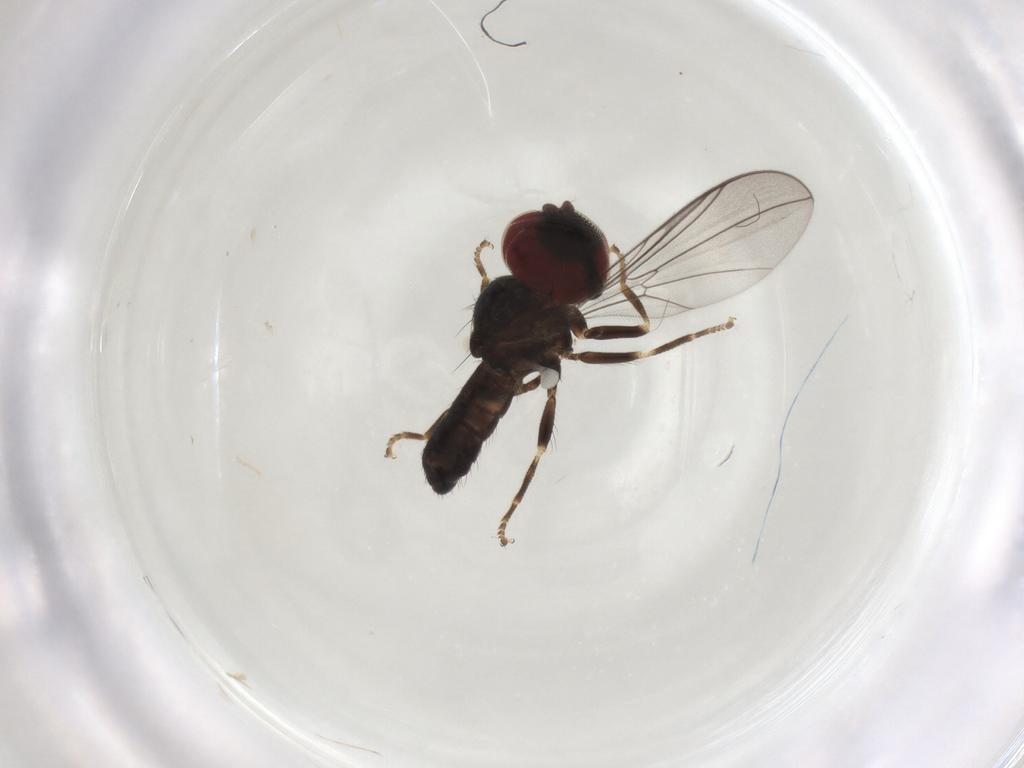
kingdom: Animalia
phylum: Arthropoda
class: Insecta
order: Diptera
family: Pipunculidae
